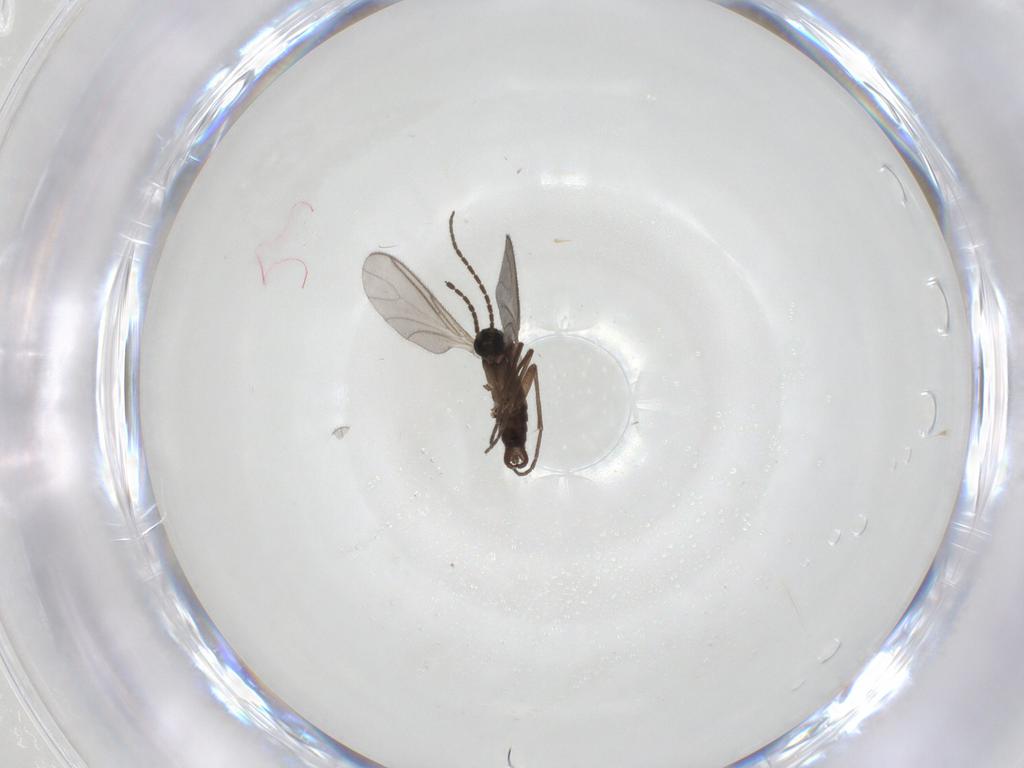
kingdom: Animalia
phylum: Arthropoda
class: Insecta
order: Diptera
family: Sciaridae
